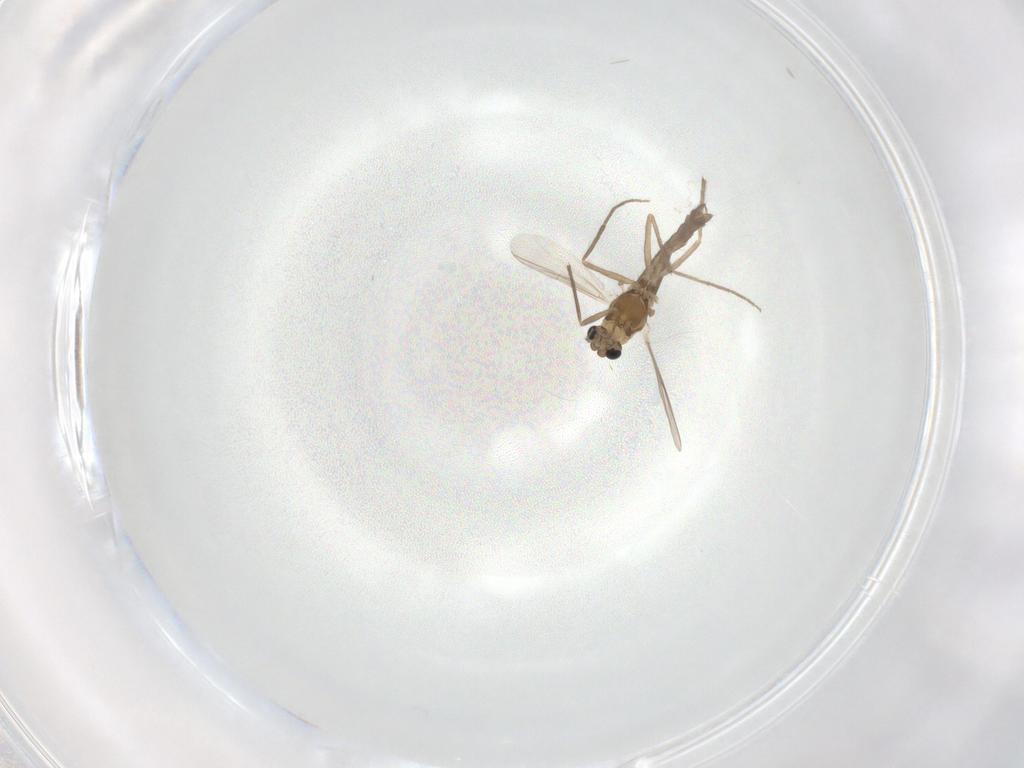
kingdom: Animalia
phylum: Arthropoda
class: Insecta
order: Diptera
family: Chironomidae
